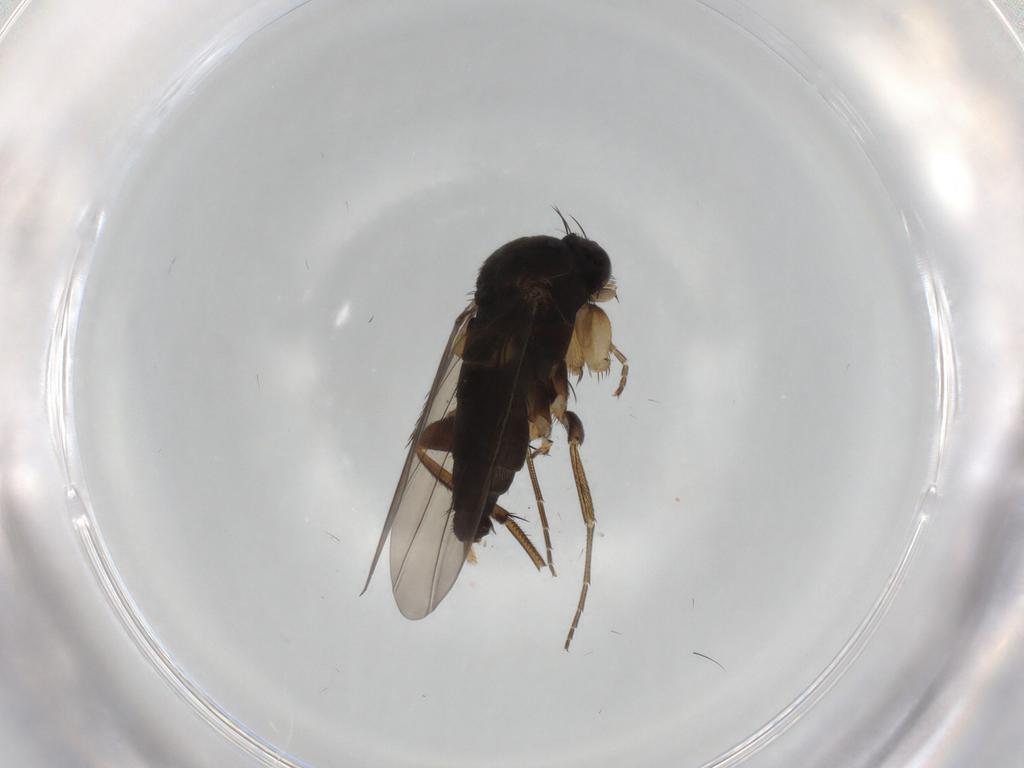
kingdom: Animalia
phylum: Arthropoda
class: Insecta
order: Diptera
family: Phoridae
